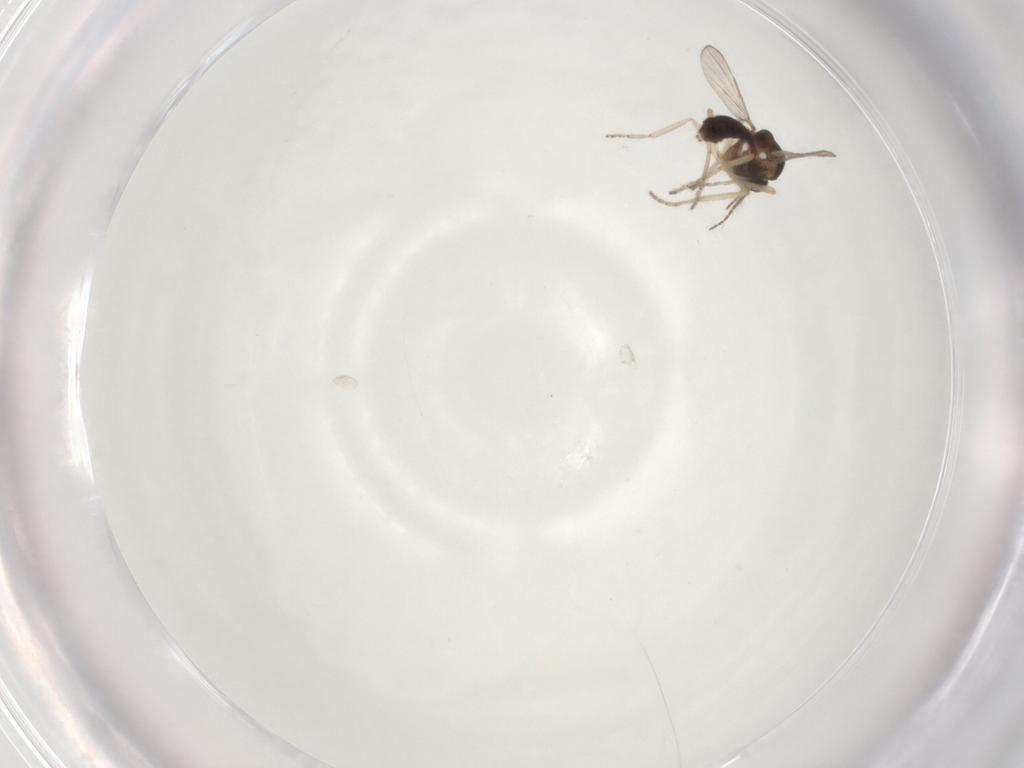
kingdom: Animalia
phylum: Arthropoda
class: Insecta
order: Diptera
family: Ceratopogonidae
